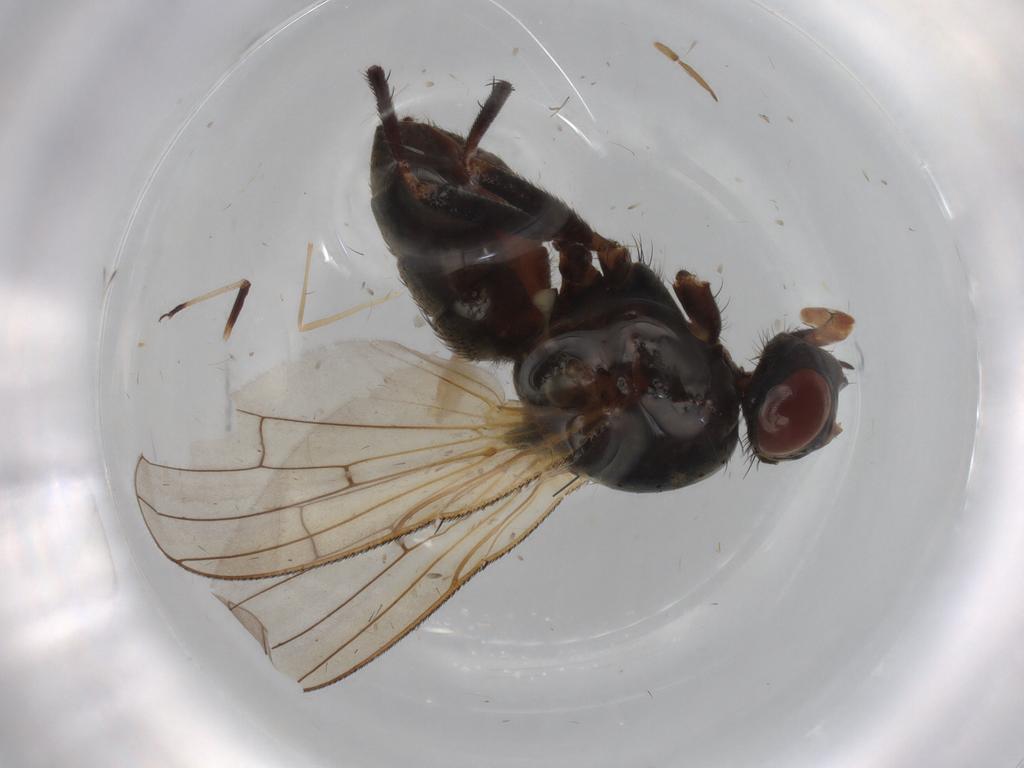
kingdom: Animalia
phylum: Arthropoda
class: Insecta
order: Diptera
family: Anthomyiidae
